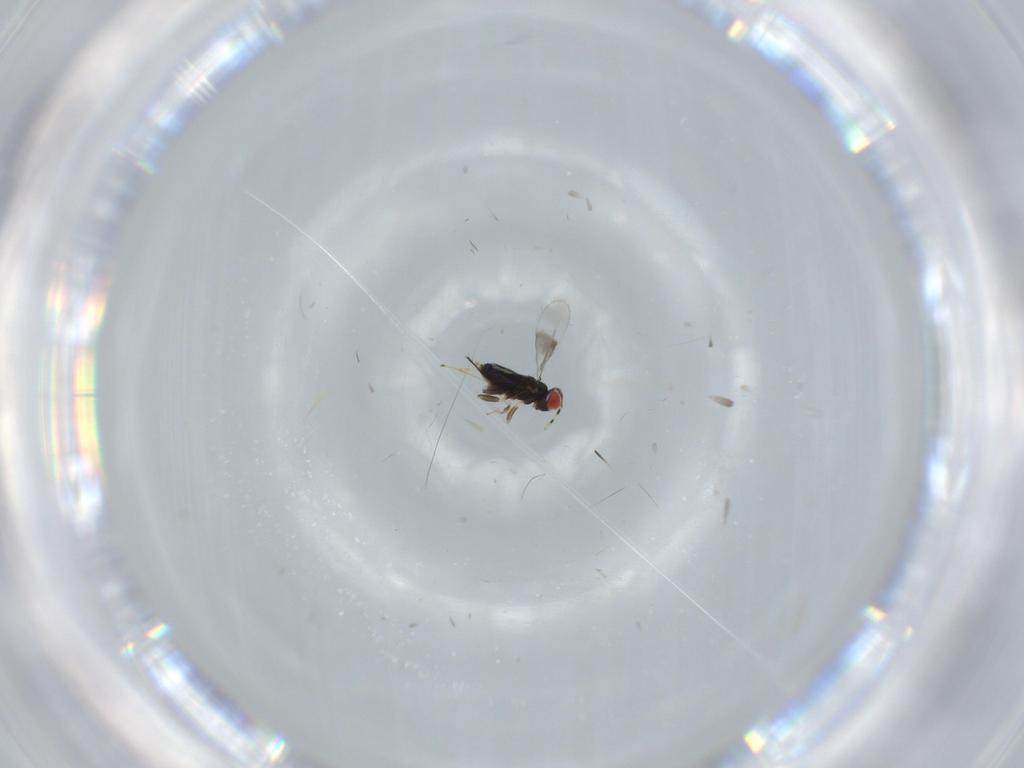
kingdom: Animalia
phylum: Arthropoda
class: Insecta
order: Hymenoptera
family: Azotidae
